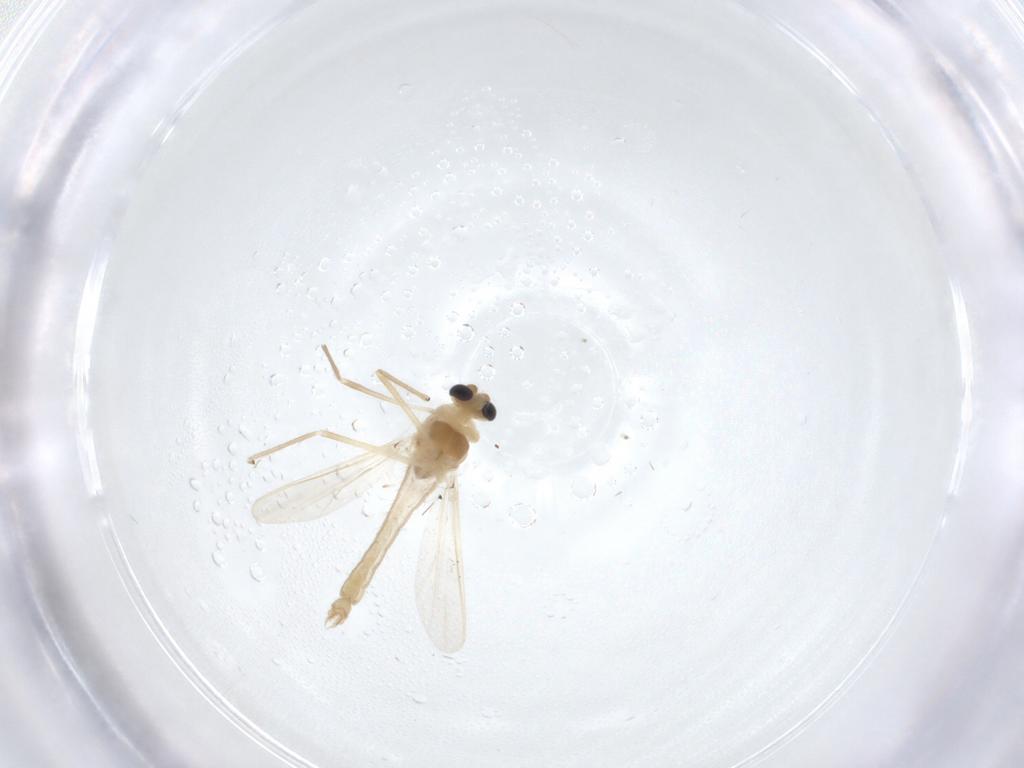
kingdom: Animalia
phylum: Arthropoda
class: Insecta
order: Diptera
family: Chironomidae
